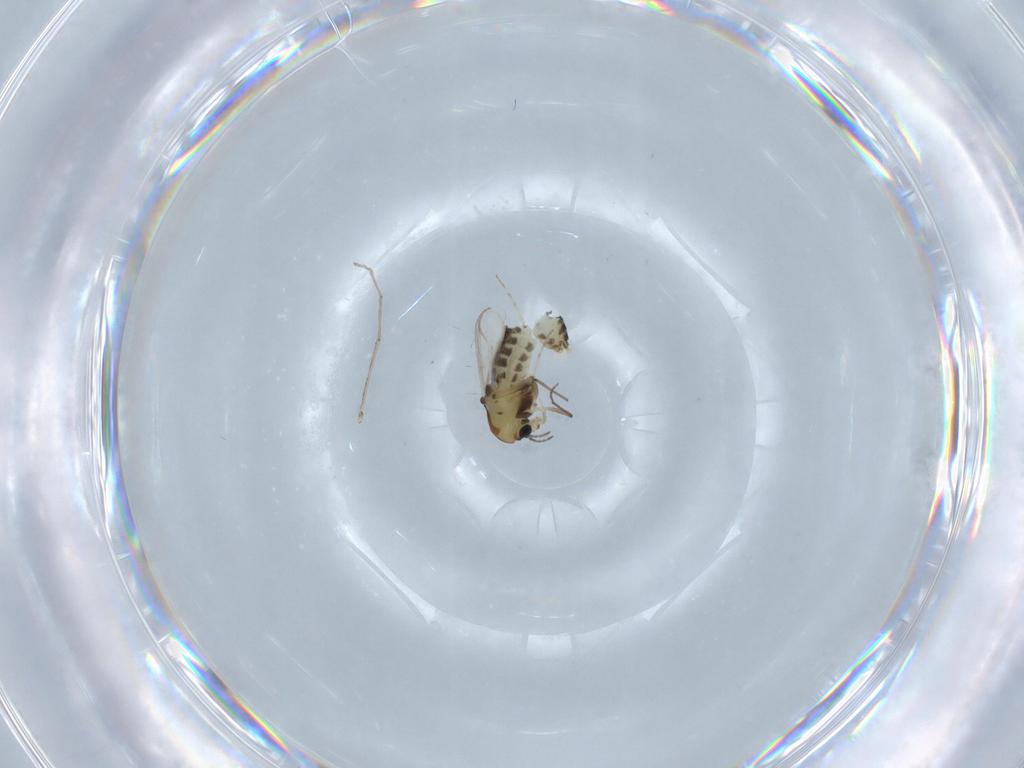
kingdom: Animalia
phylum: Arthropoda
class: Insecta
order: Diptera
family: Chironomidae
